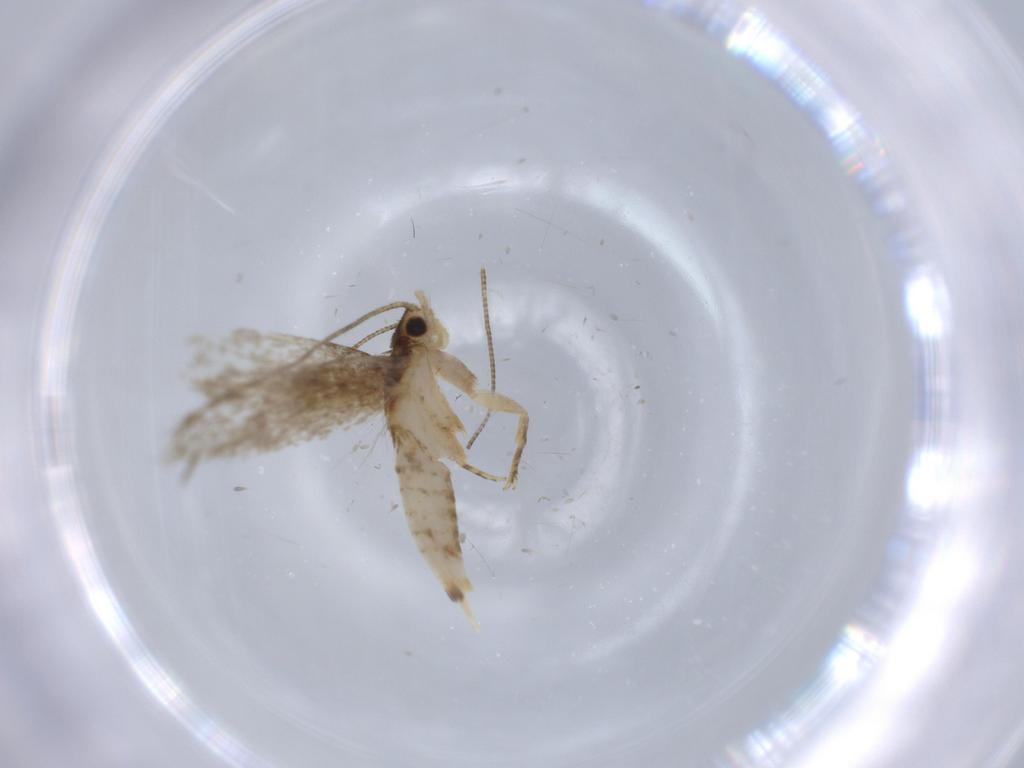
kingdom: Animalia
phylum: Arthropoda
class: Insecta
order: Lepidoptera
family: Tineidae
